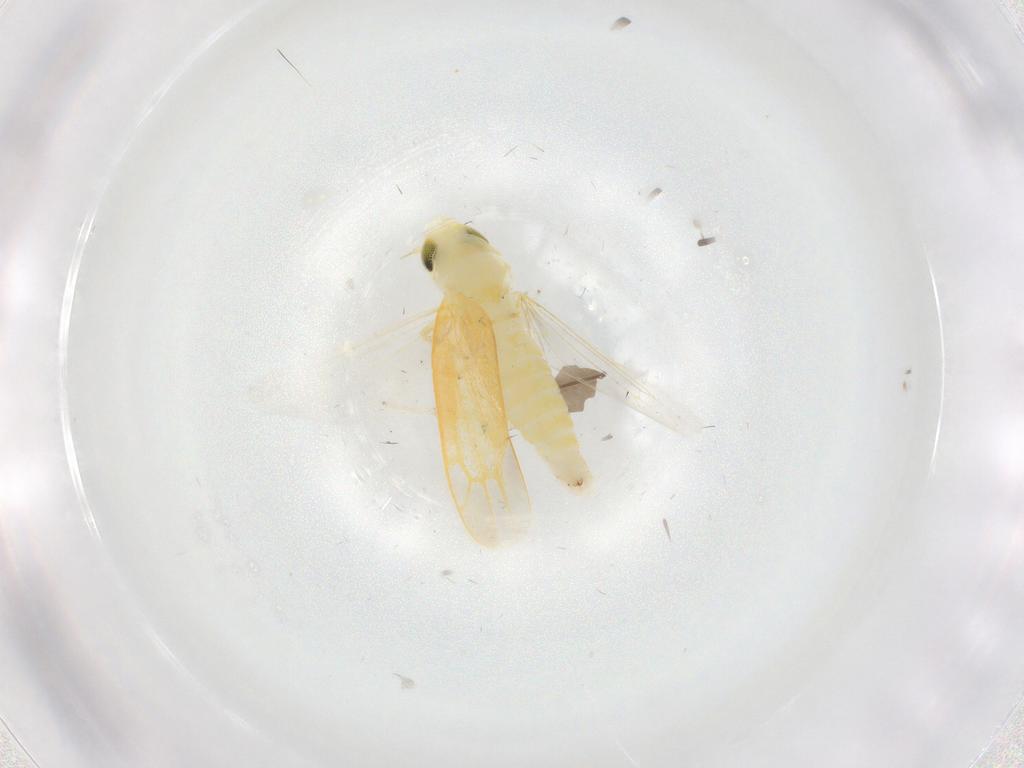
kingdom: Animalia
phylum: Arthropoda
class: Insecta
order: Hemiptera
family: Cicadellidae
